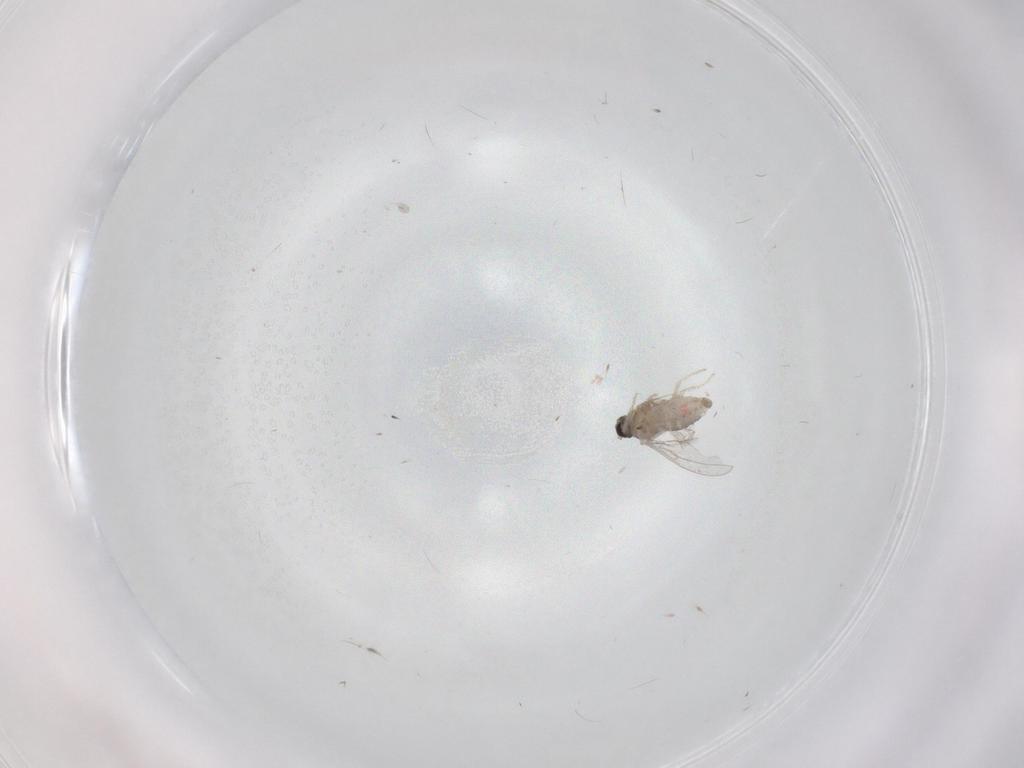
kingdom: Animalia
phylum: Arthropoda
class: Insecta
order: Diptera
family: Cecidomyiidae
